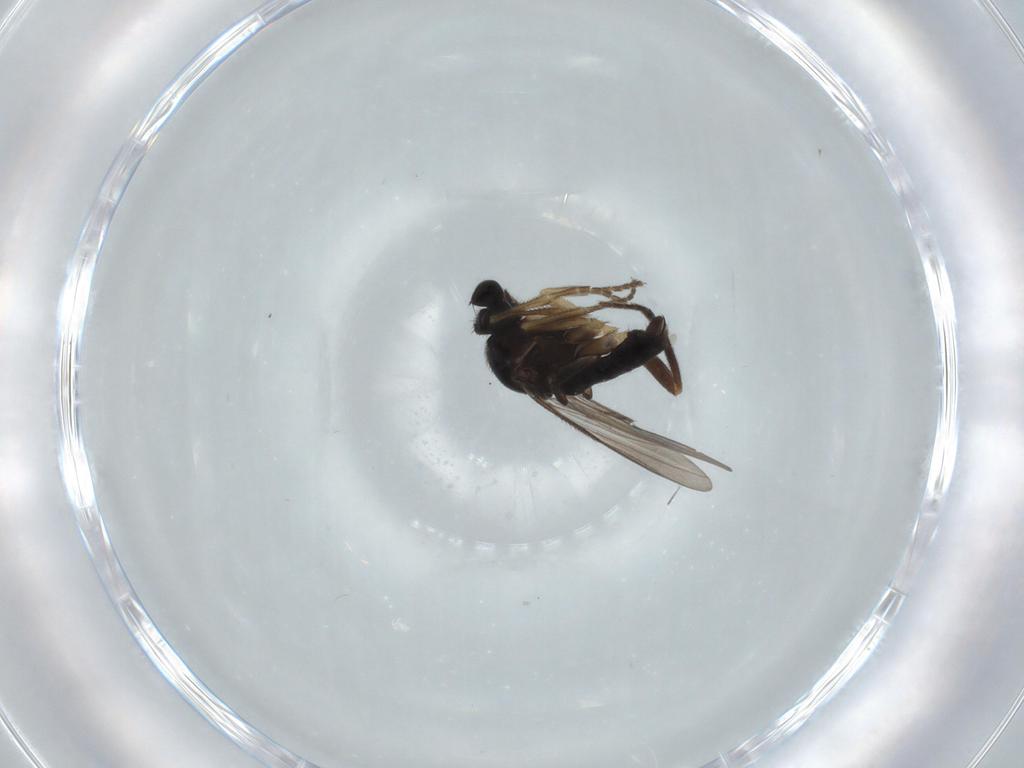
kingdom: Animalia
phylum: Arthropoda
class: Insecta
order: Diptera
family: Phoridae
